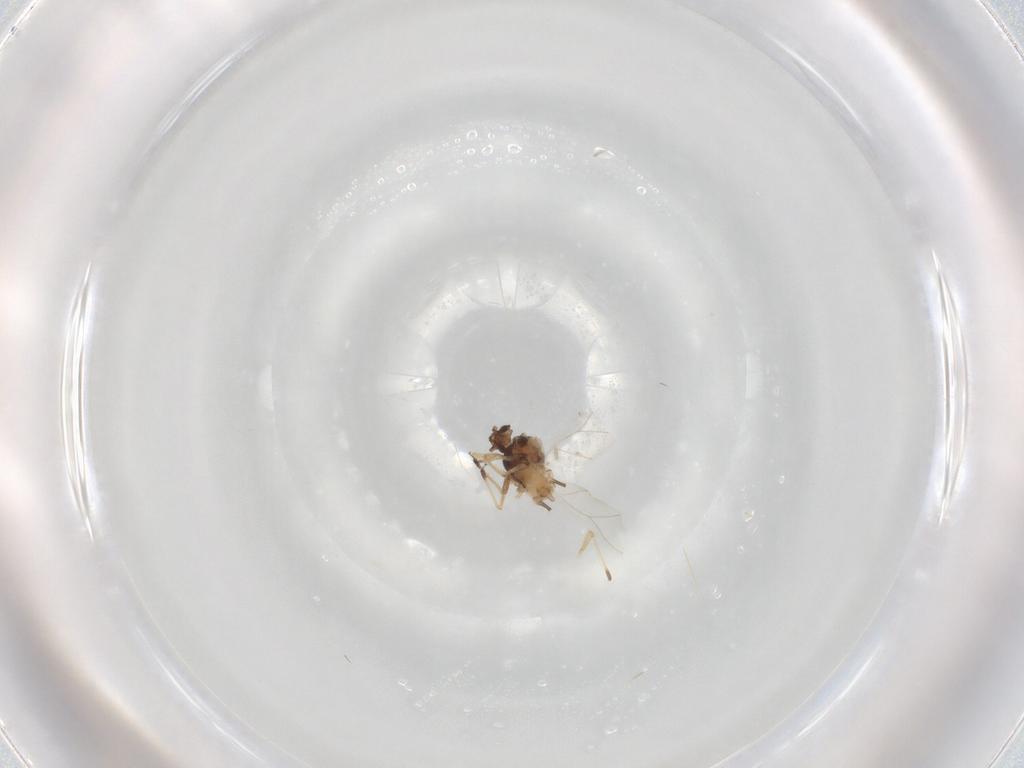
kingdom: Animalia
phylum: Arthropoda
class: Insecta
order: Hemiptera
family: Aphididae
